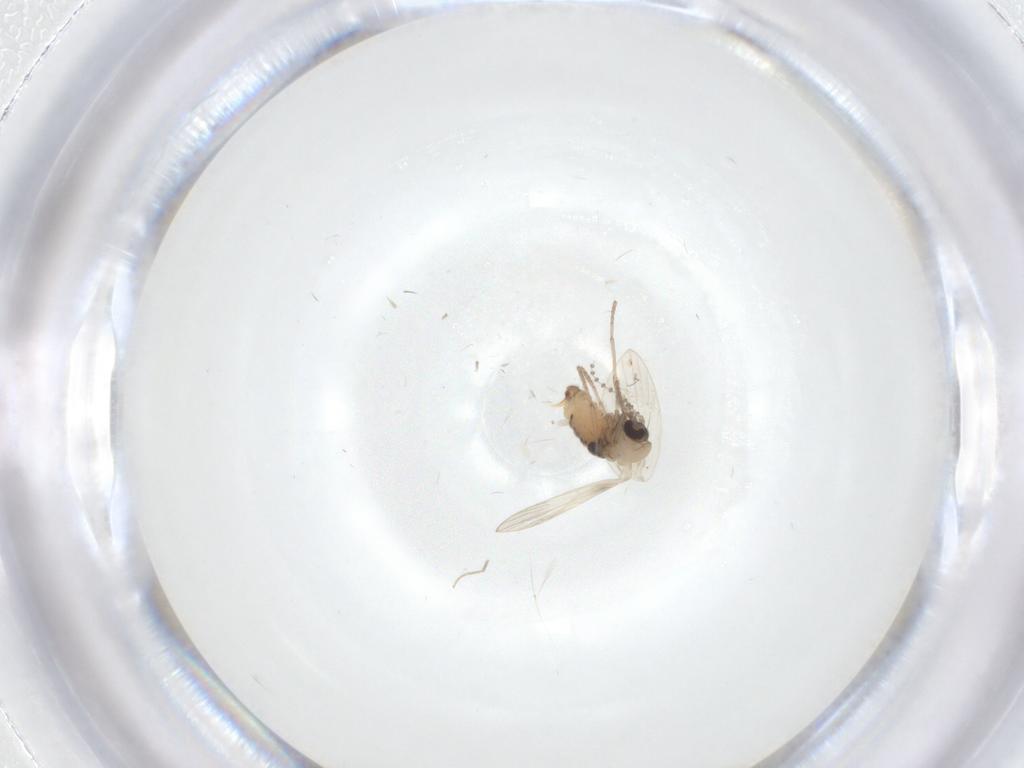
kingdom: Animalia
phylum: Arthropoda
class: Insecta
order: Diptera
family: Psychodidae
